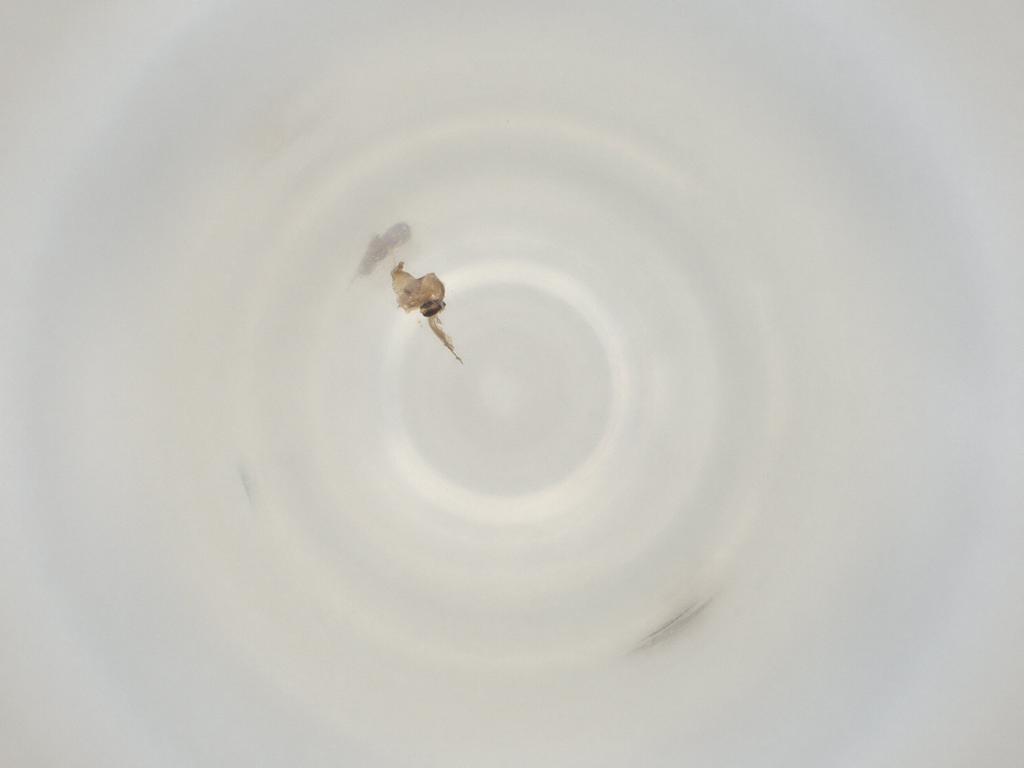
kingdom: Animalia
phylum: Arthropoda
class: Insecta
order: Diptera
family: Cecidomyiidae
